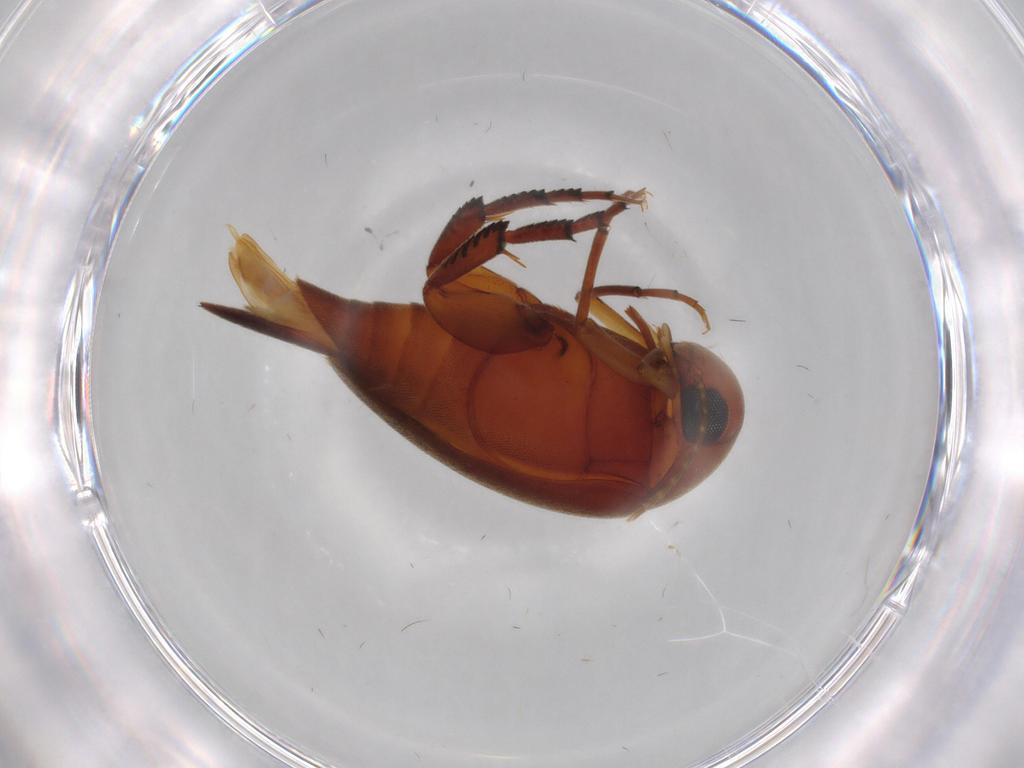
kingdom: Animalia
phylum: Arthropoda
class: Insecta
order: Coleoptera
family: Mordellidae
